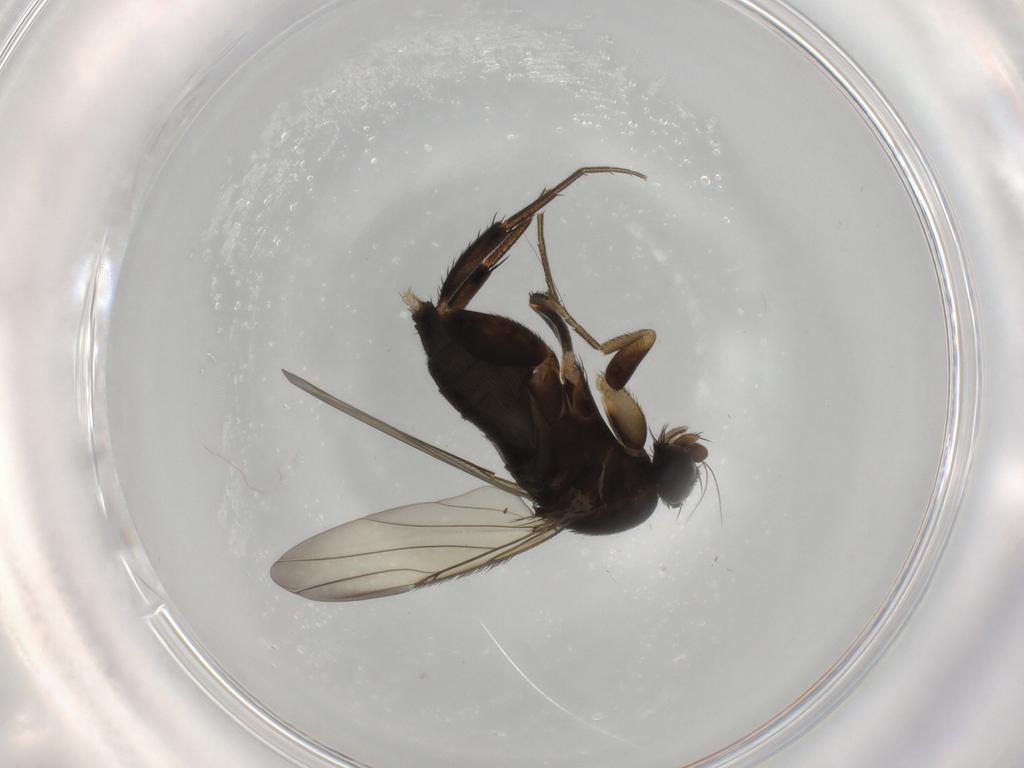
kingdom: Animalia
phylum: Arthropoda
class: Insecta
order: Diptera
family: Phoridae
